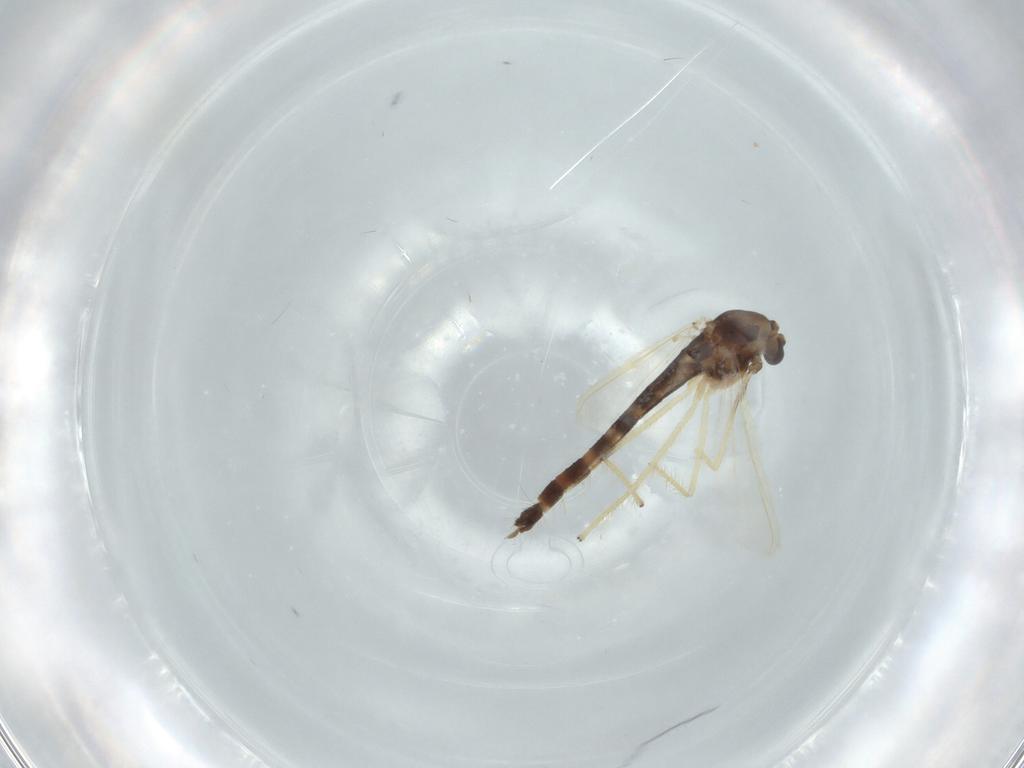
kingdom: Animalia
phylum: Arthropoda
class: Insecta
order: Diptera
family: Chironomidae
